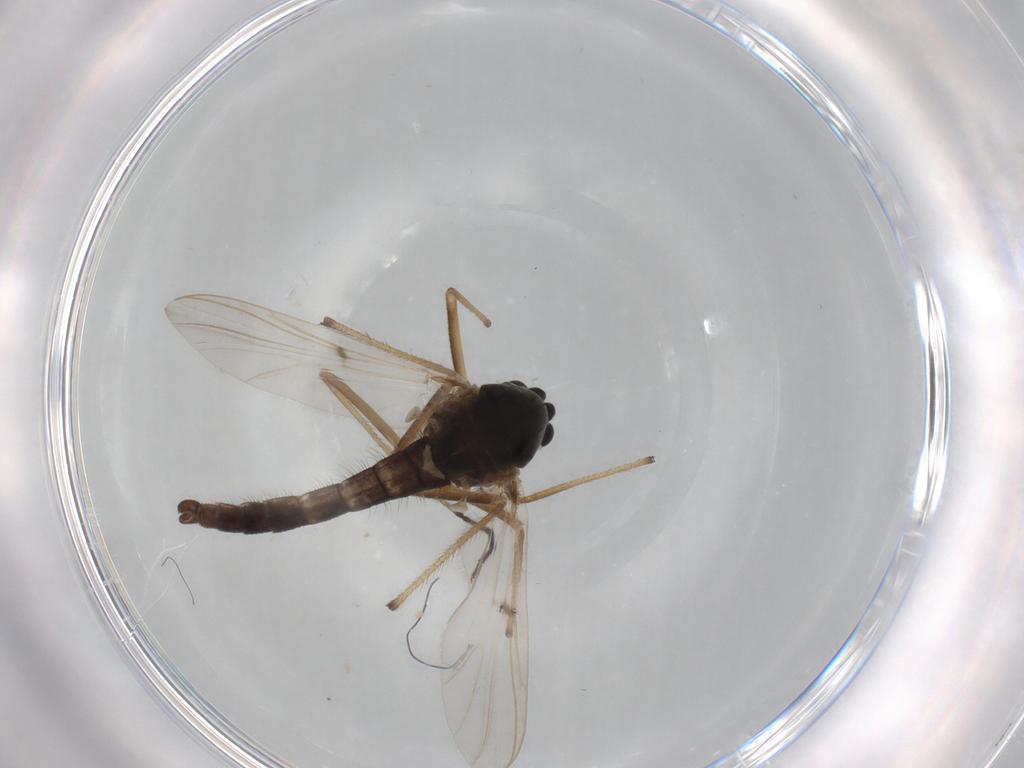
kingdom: Animalia
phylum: Arthropoda
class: Insecta
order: Diptera
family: Chironomidae
